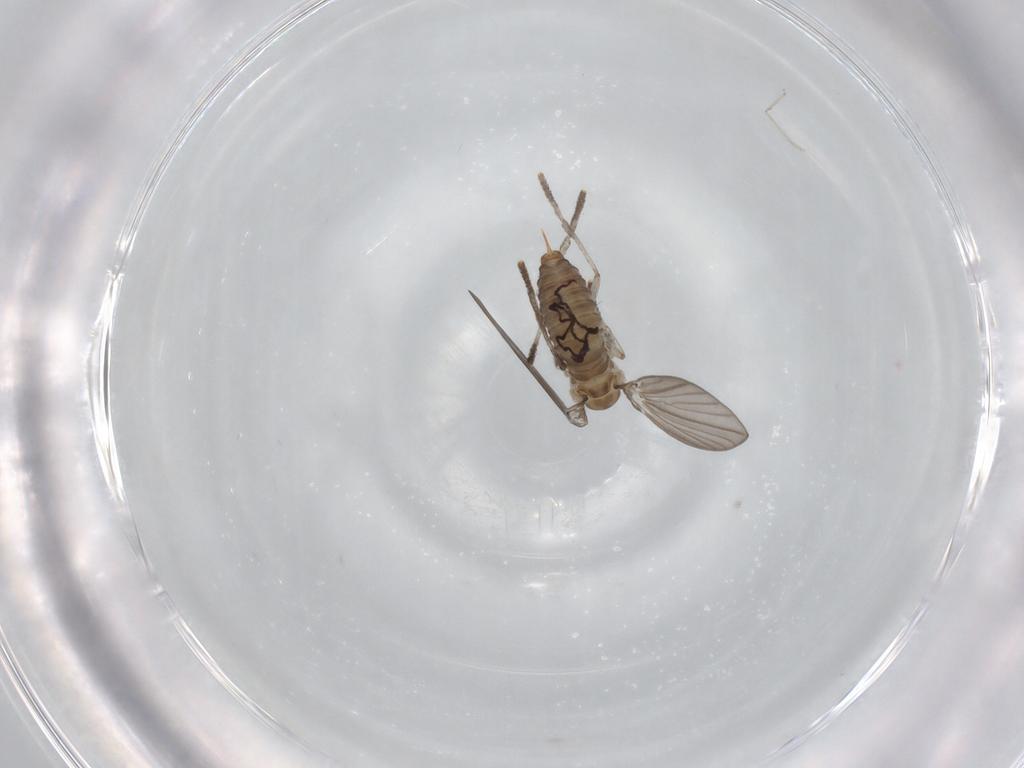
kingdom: Animalia
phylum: Arthropoda
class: Insecta
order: Diptera
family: Psychodidae
